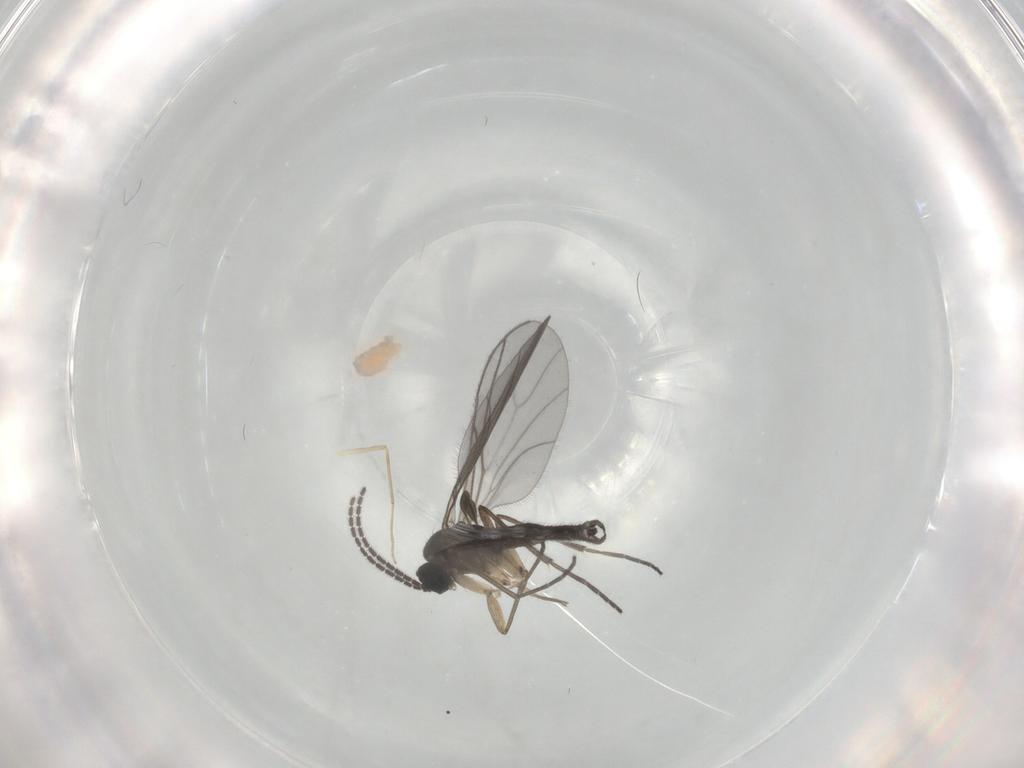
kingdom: Animalia
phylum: Arthropoda
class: Insecta
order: Diptera
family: Sciaridae
